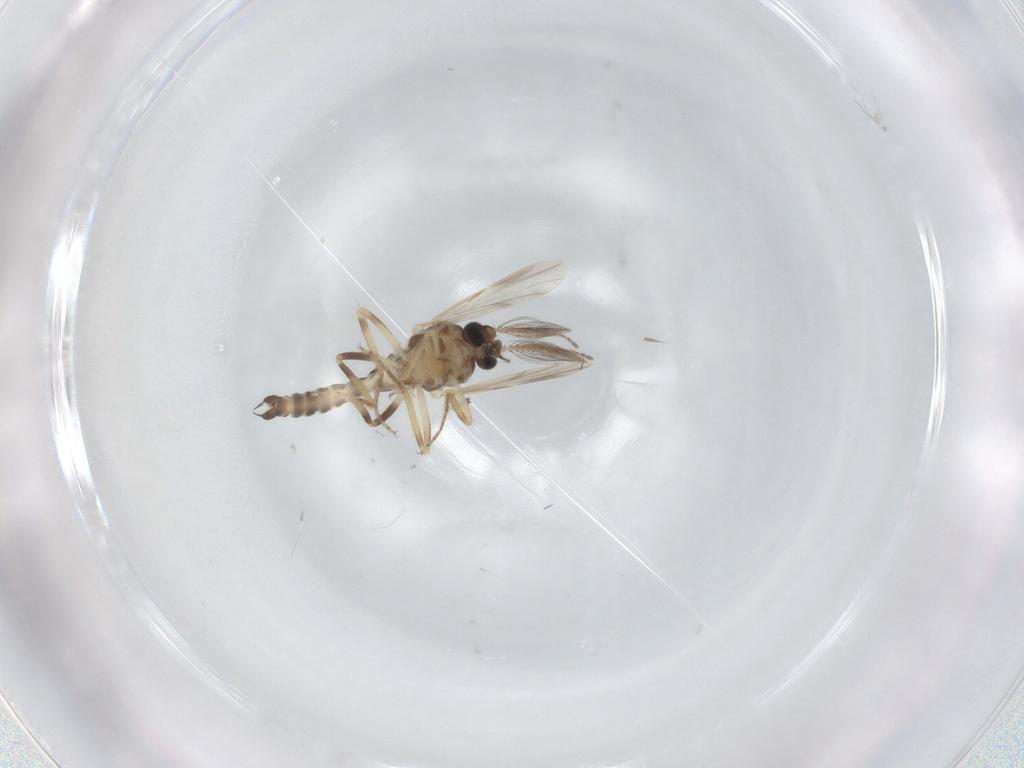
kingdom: Animalia
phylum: Arthropoda
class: Insecta
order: Diptera
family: Ceratopogonidae
